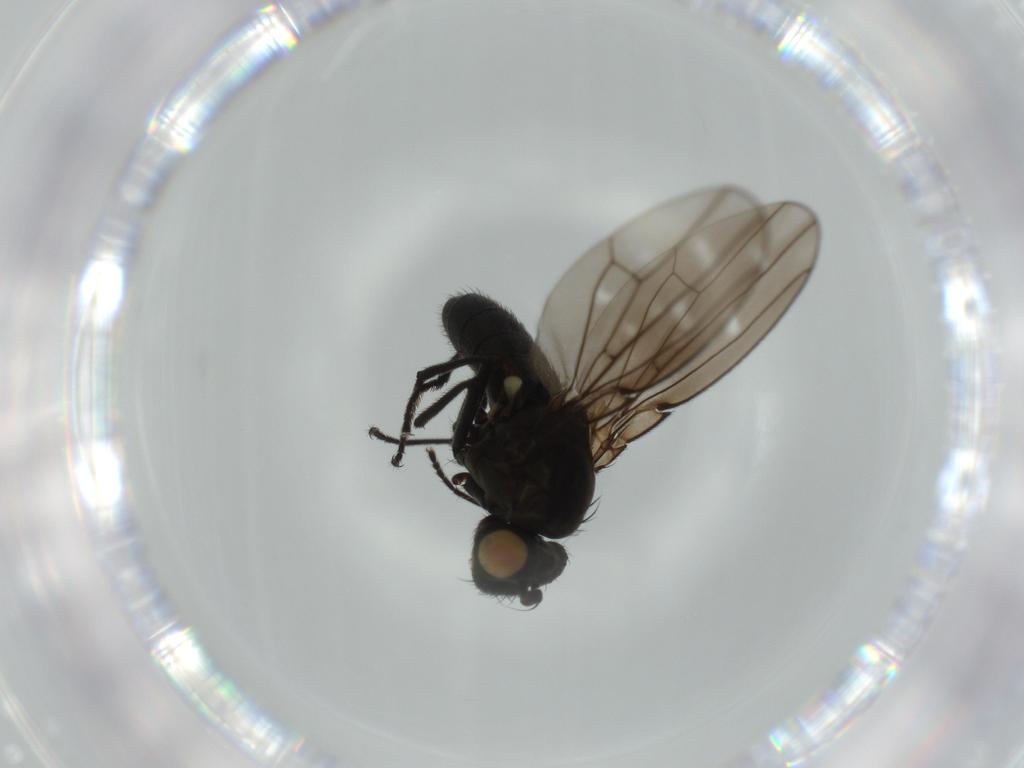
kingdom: Animalia
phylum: Arthropoda
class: Insecta
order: Diptera
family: Ephydridae
